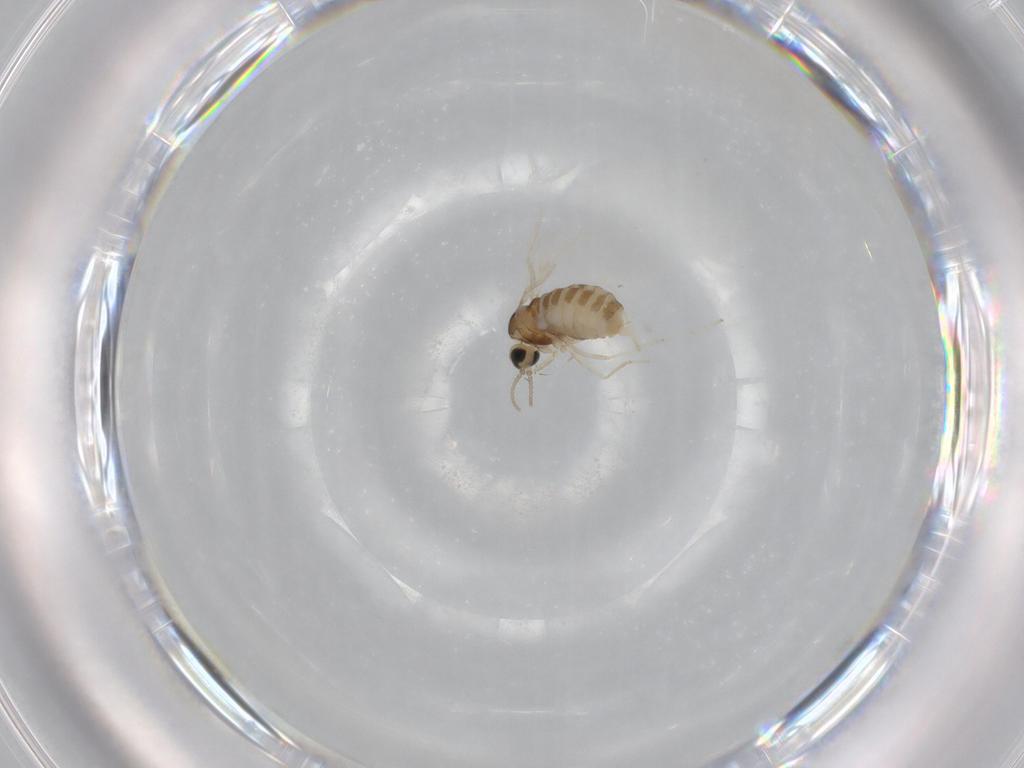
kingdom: Animalia
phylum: Arthropoda
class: Insecta
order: Diptera
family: Cecidomyiidae
